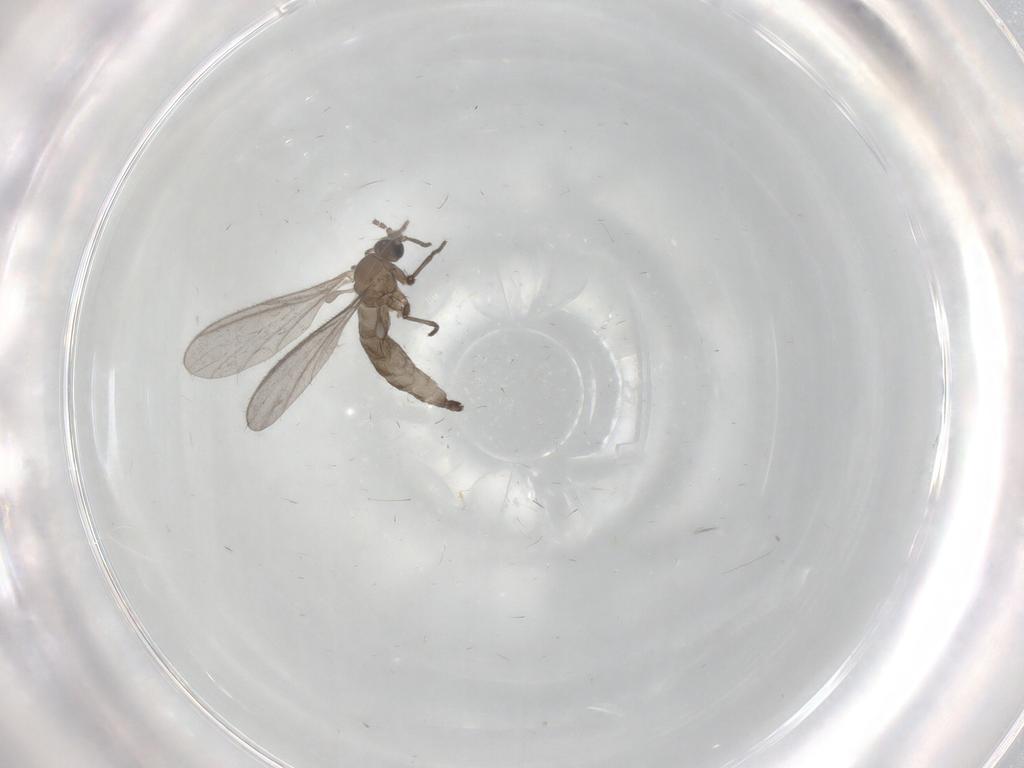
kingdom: Animalia
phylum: Arthropoda
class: Insecta
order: Diptera
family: Sciaridae
